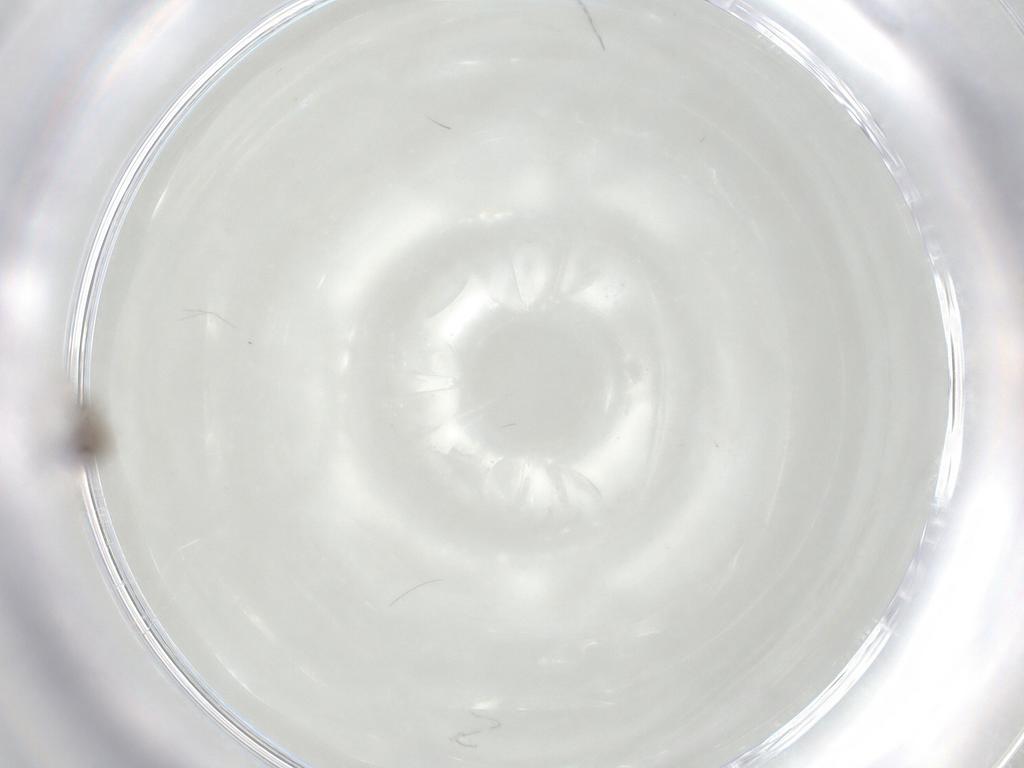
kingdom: Animalia
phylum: Arthropoda
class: Insecta
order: Diptera
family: Chironomidae
